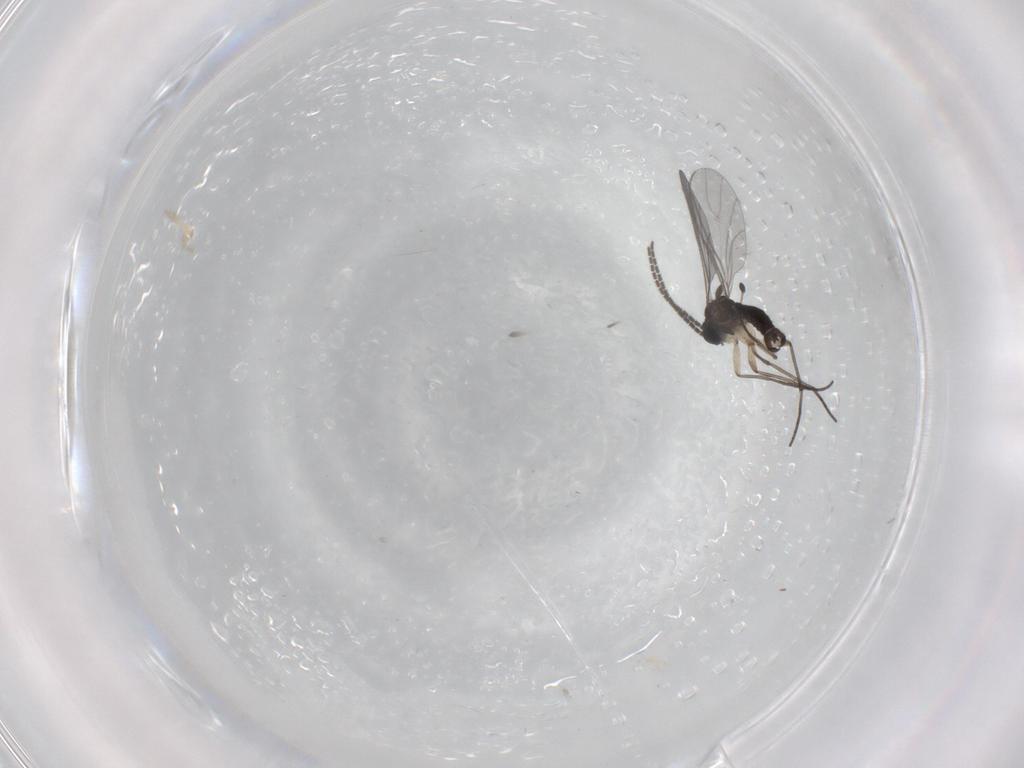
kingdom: Animalia
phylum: Arthropoda
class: Insecta
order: Diptera
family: Sciaridae
